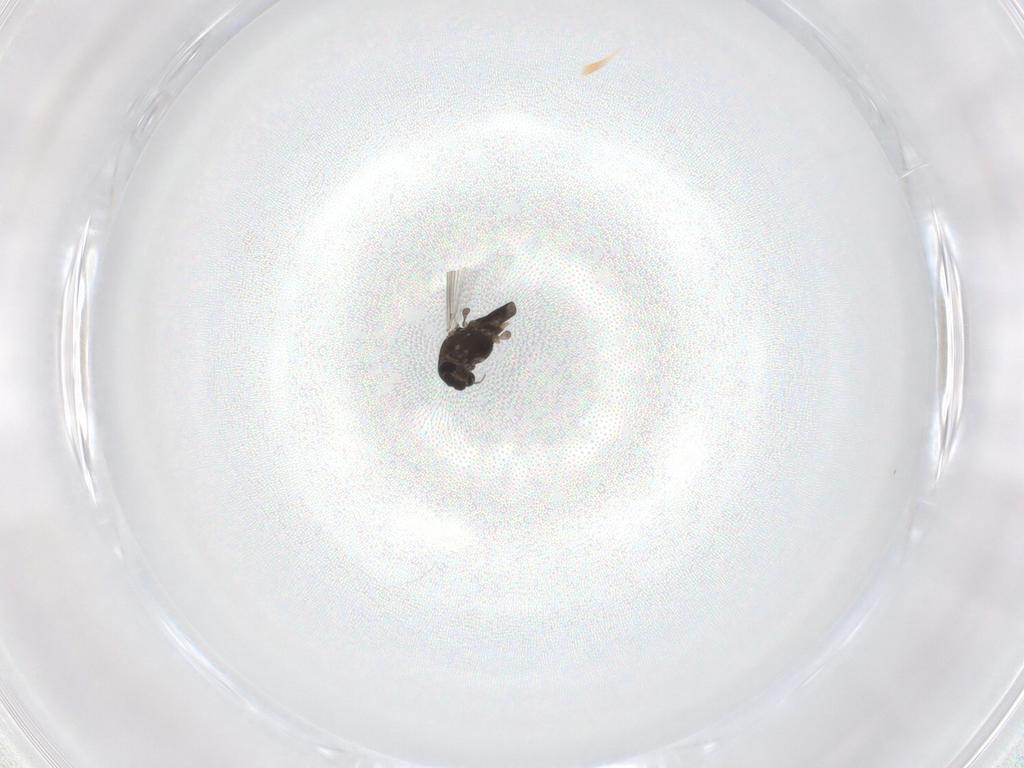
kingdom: Animalia
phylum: Arthropoda
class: Insecta
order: Diptera
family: Chironomidae
